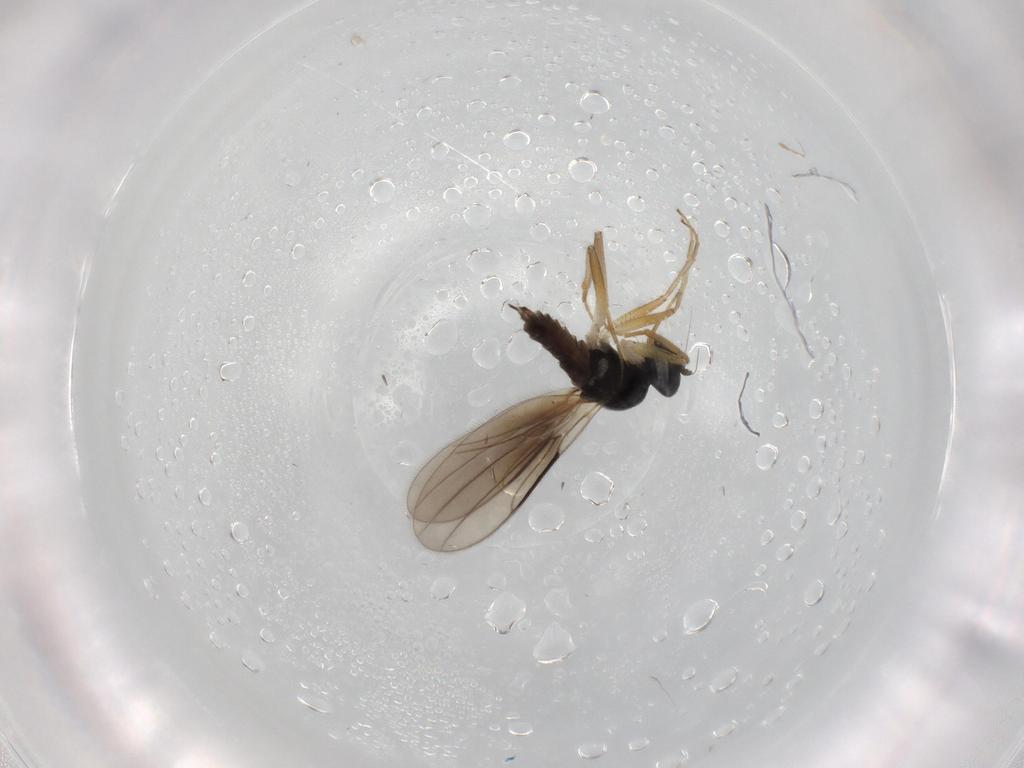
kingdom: Animalia
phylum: Arthropoda
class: Insecta
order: Diptera
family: Hybotidae
